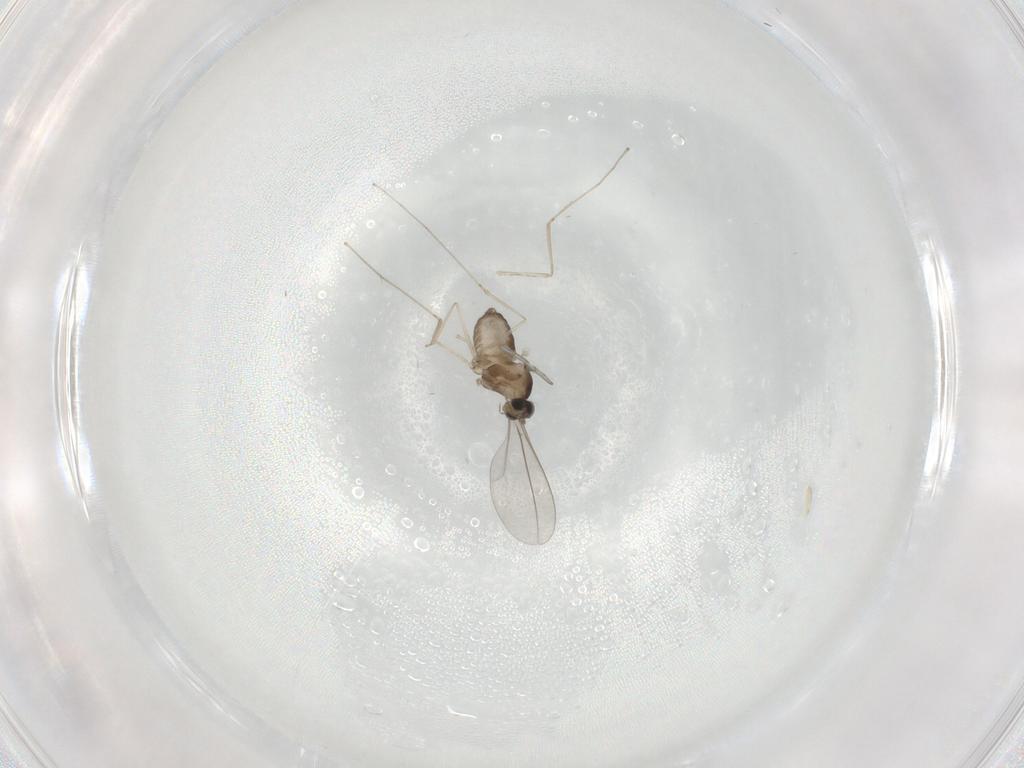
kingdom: Animalia
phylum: Arthropoda
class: Insecta
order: Diptera
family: Cecidomyiidae
